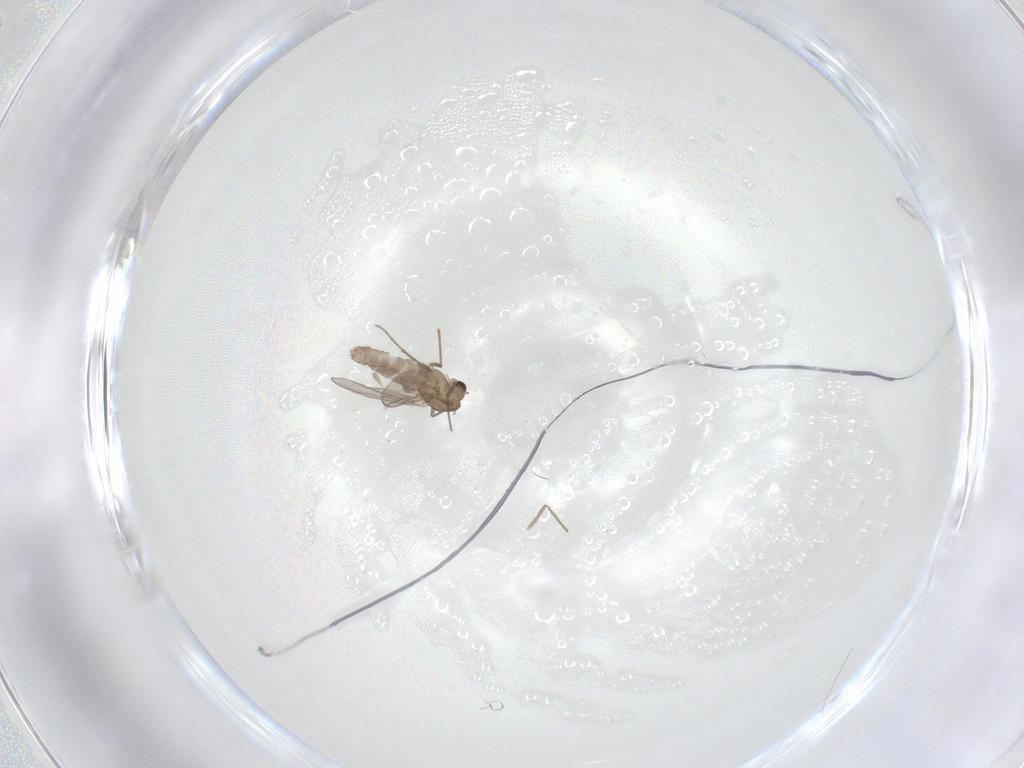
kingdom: Animalia
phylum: Arthropoda
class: Insecta
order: Diptera
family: Chironomidae
